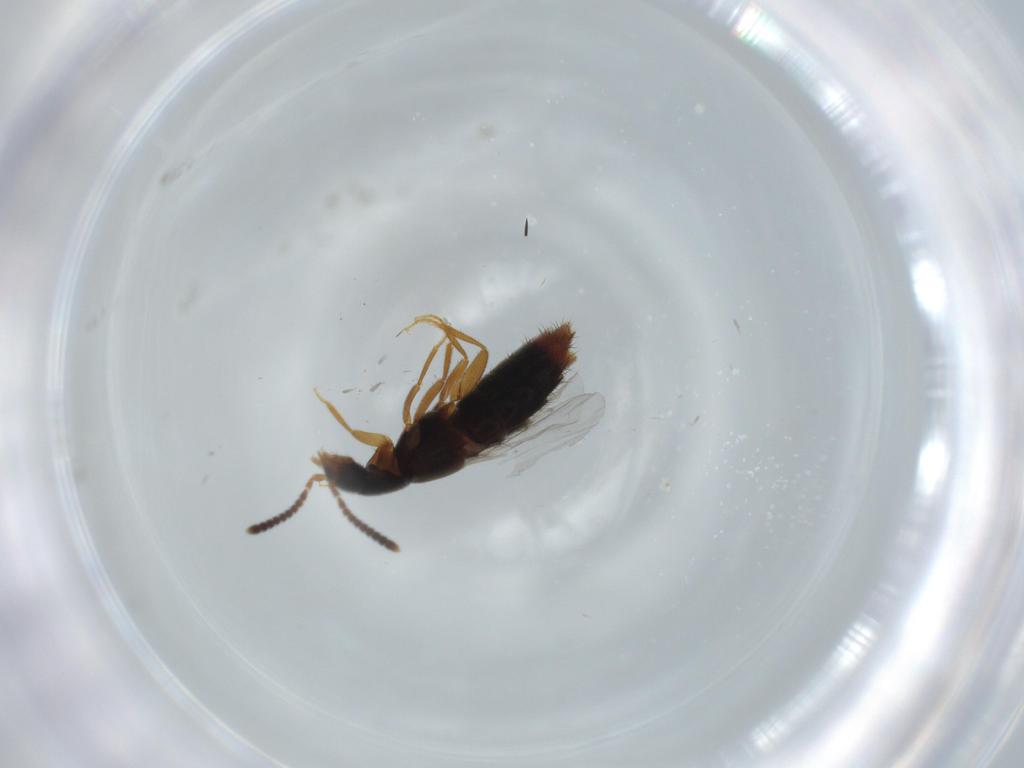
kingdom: Animalia
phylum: Arthropoda
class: Insecta
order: Coleoptera
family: Staphylinidae
